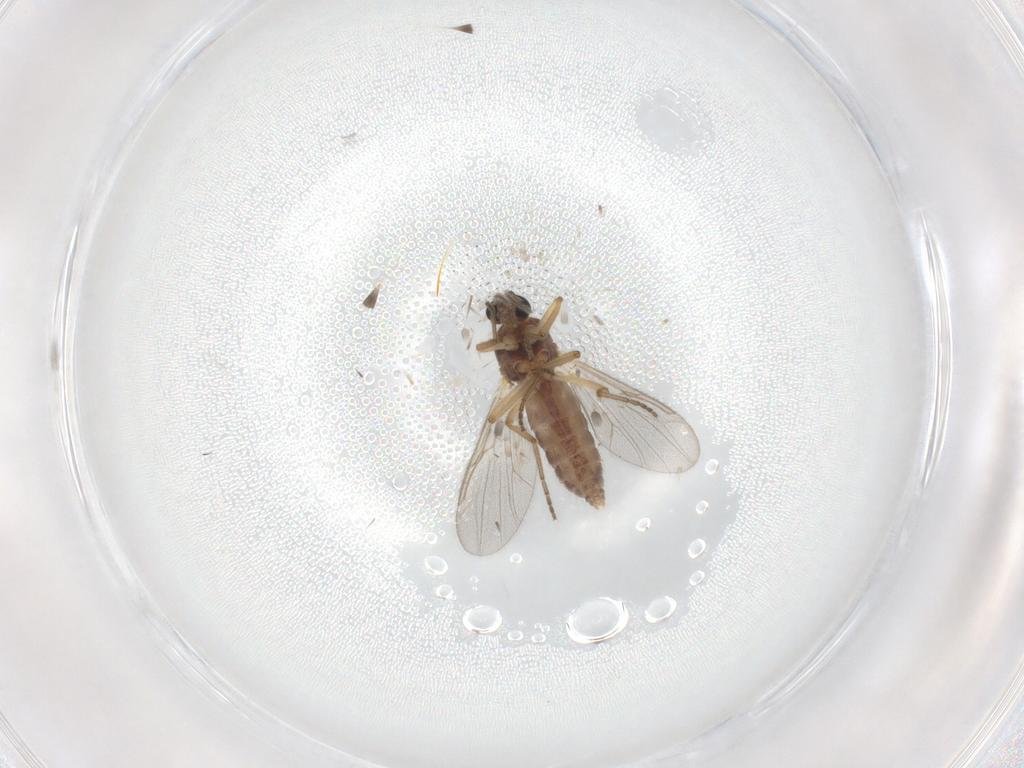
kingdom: Animalia
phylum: Arthropoda
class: Insecta
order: Diptera
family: Ceratopogonidae
